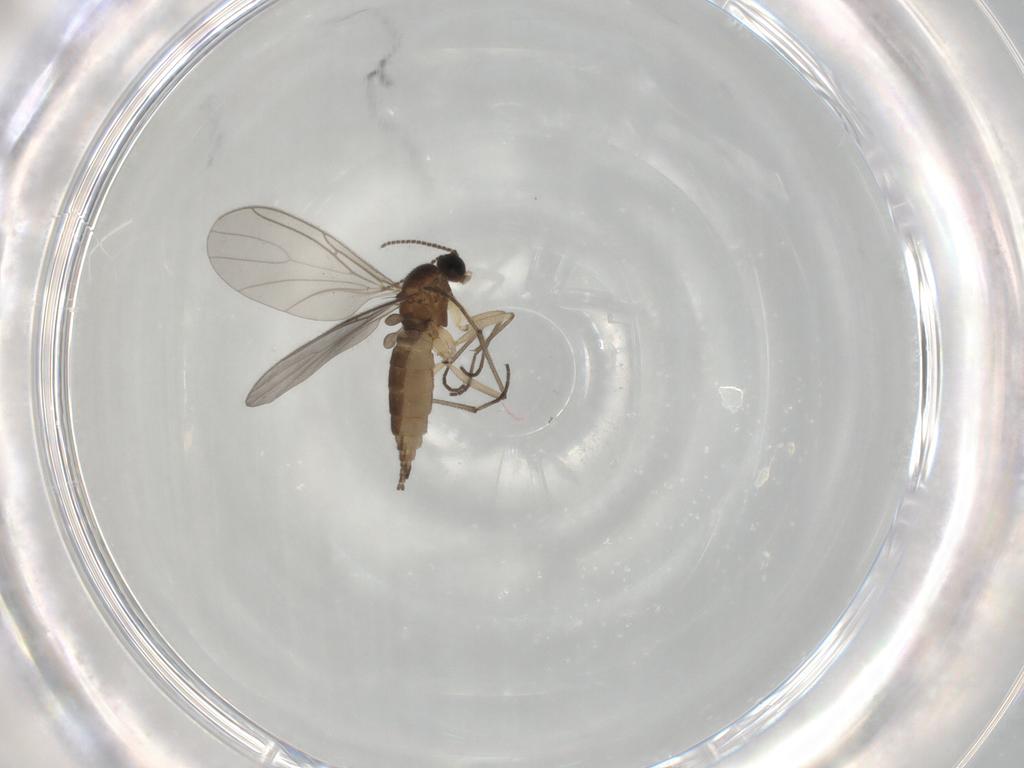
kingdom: Animalia
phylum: Arthropoda
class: Insecta
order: Diptera
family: Sciaridae
